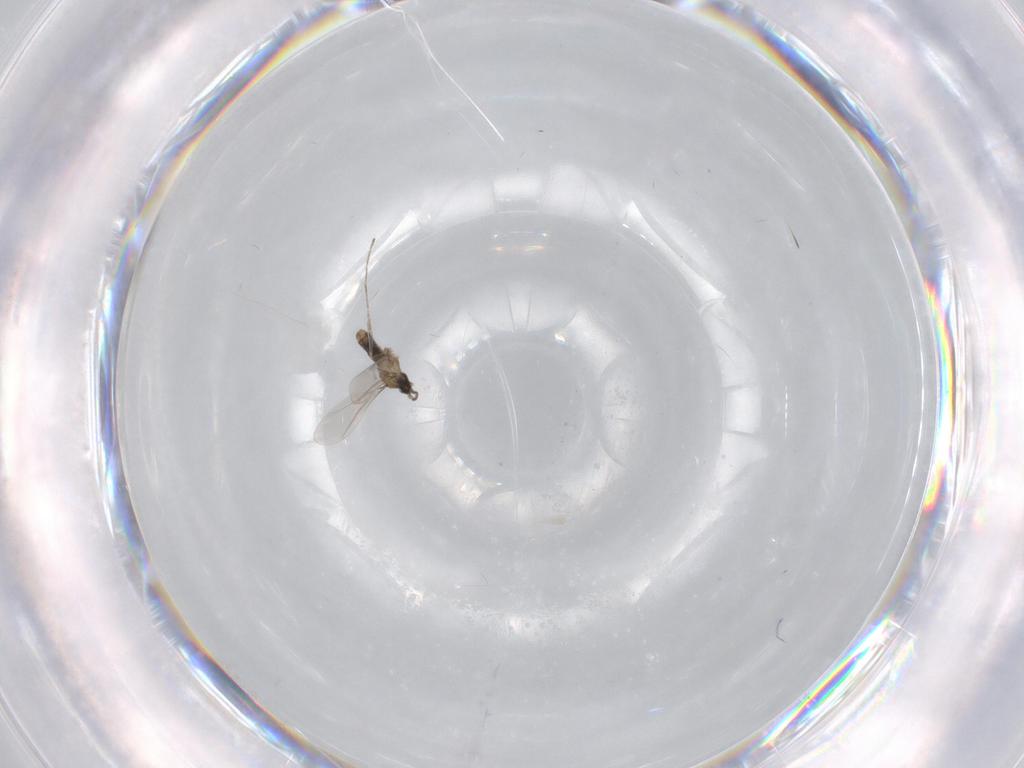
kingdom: Animalia
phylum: Arthropoda
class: Insecta
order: Diptera
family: Cecidomyiidae
